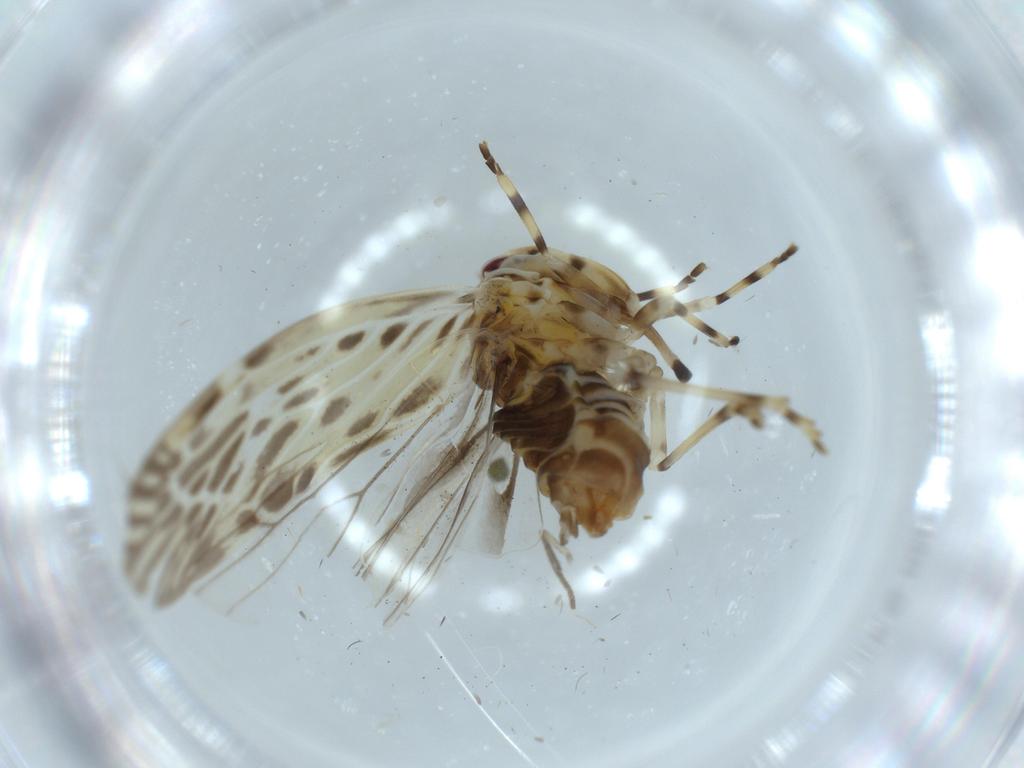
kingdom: Animalia
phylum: Arthropoda
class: Insecta
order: Hemiptera
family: Derbidae
